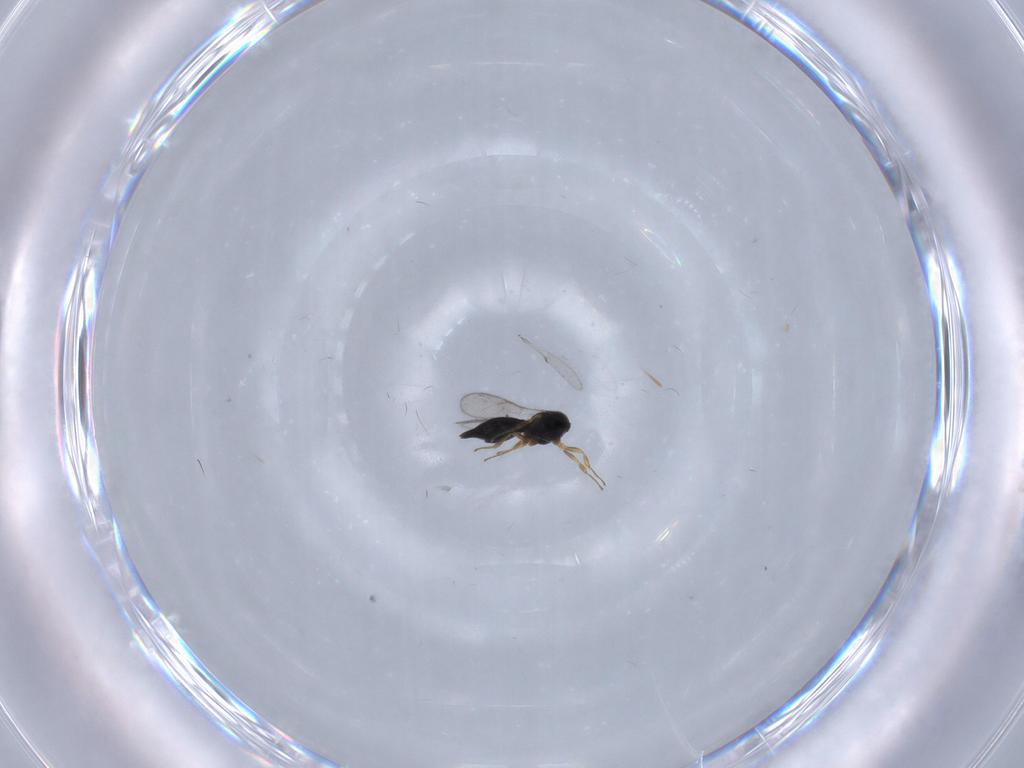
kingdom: Animalia
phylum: Arthropoda
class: Insecta
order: Hymenoptera
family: Scelionidae
